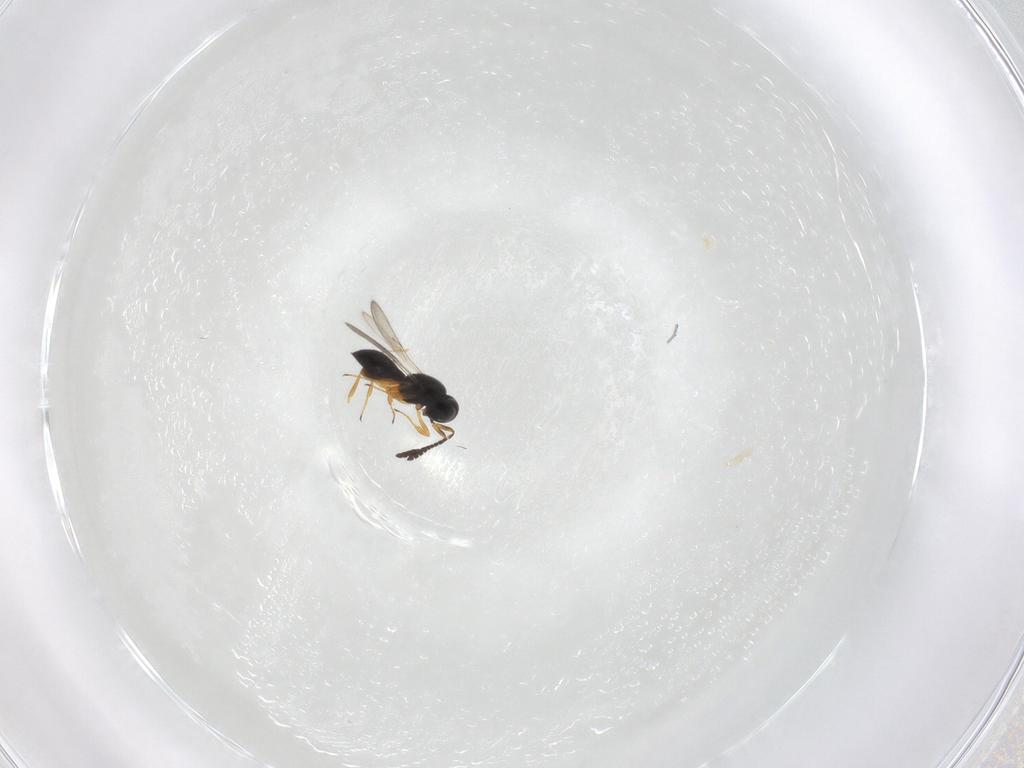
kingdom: Animalia
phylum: Arthropoda
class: Insecta
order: Hymenoptera
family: Scelionidae
